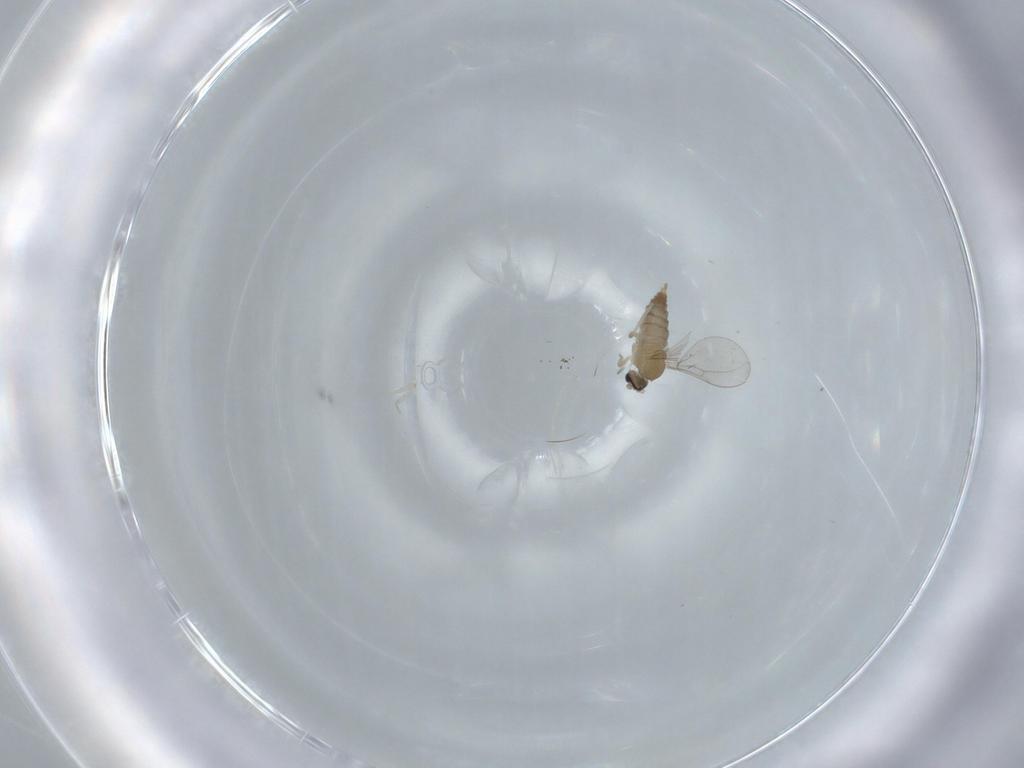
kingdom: Animalia
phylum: Arthropoda
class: Insecta
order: Diptera
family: Cecidomyiidae
